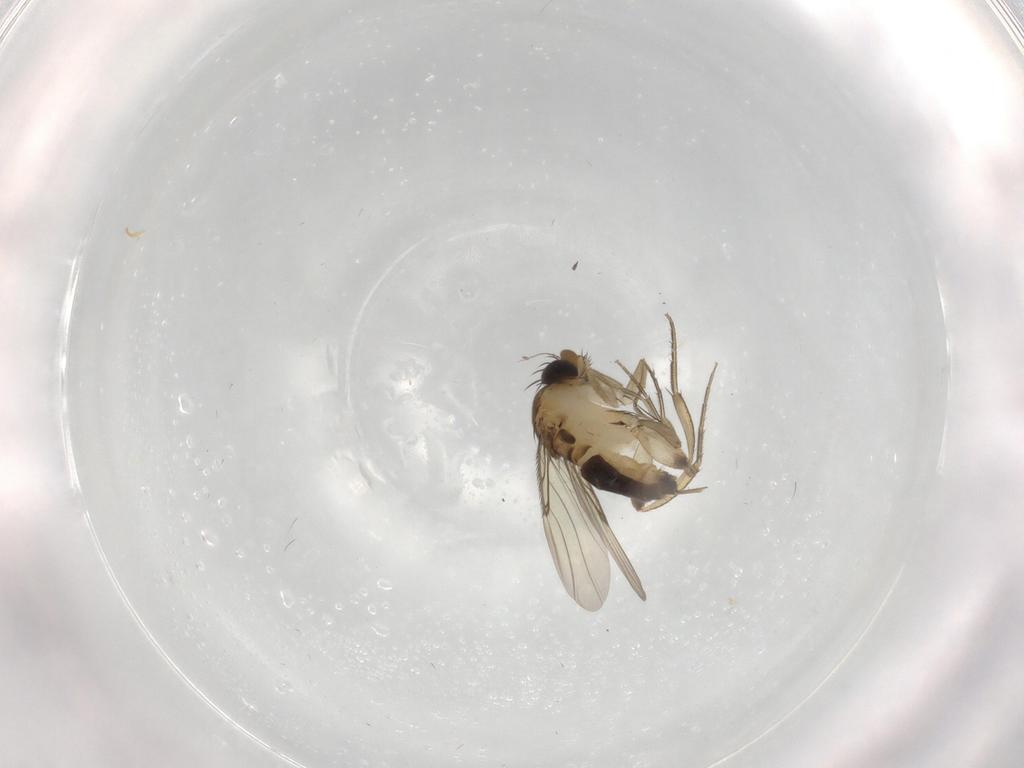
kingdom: Animalia
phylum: Arthropoda
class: Insecta
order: Diptera
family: Phoridae
